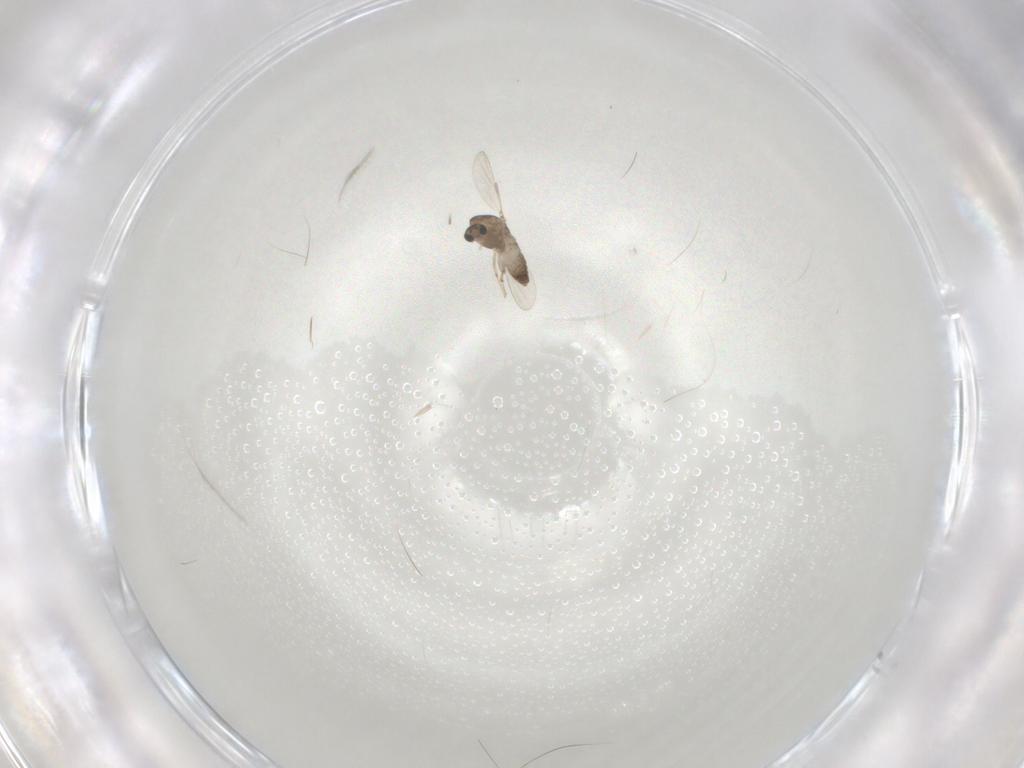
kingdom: Animalia
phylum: Arthropoda
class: Insecta
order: Diptera
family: Chironomidae
